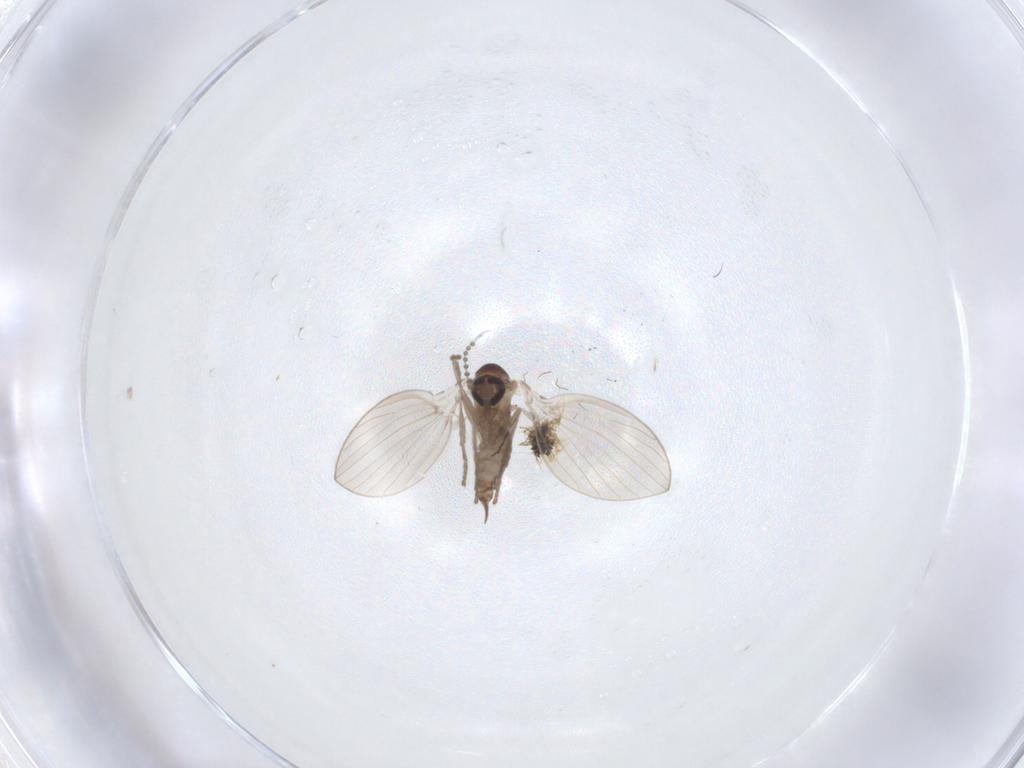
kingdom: Animalia
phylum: Arthropoda
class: Insecta
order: Diptera
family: Psychodidae
